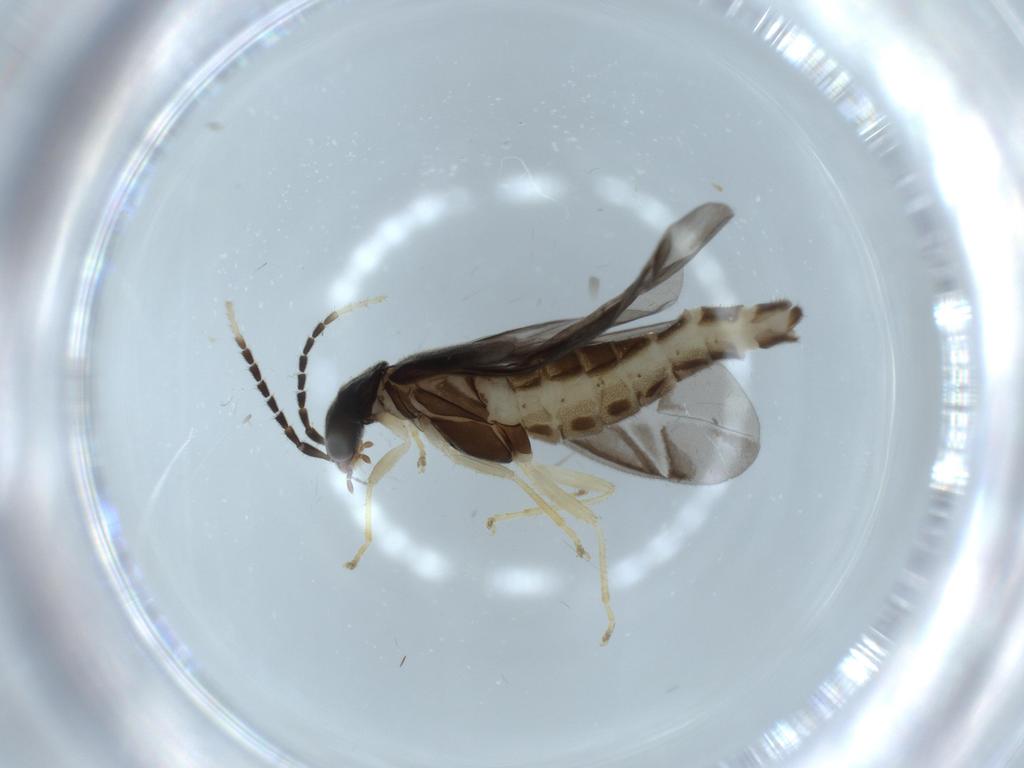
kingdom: Animalia
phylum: Arthropoda
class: Insecta
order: Coleoptera
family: Cantharidae
